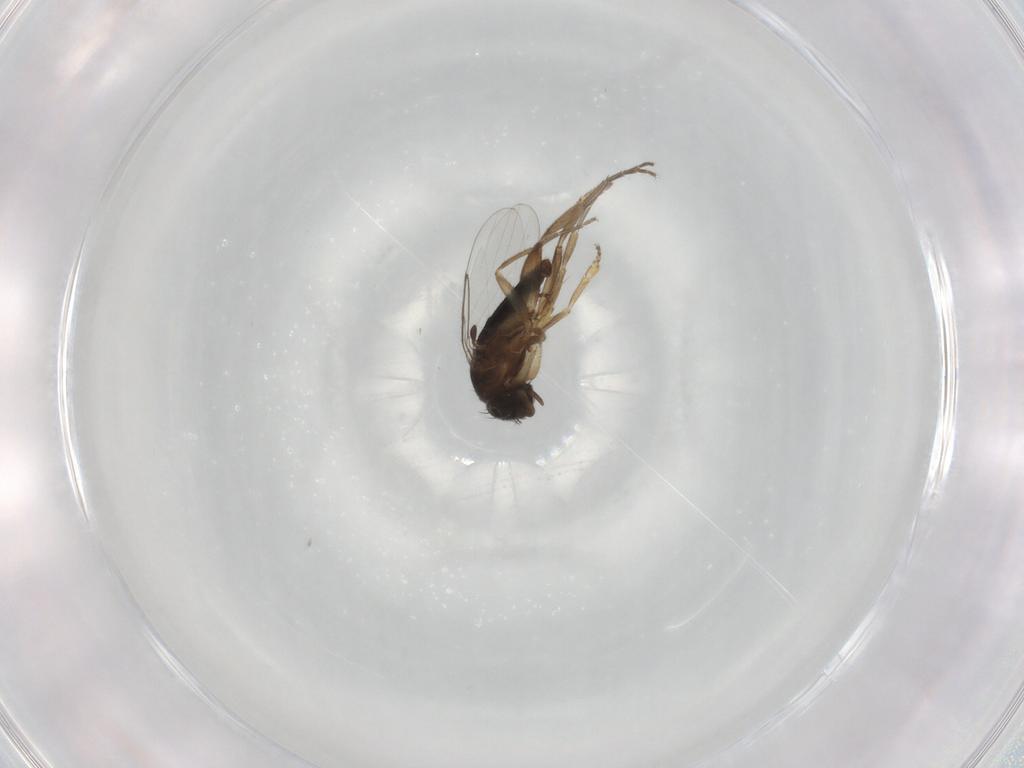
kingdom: Animalia
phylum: Arthropoda
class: Insecta
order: Diptera
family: Phoridae
